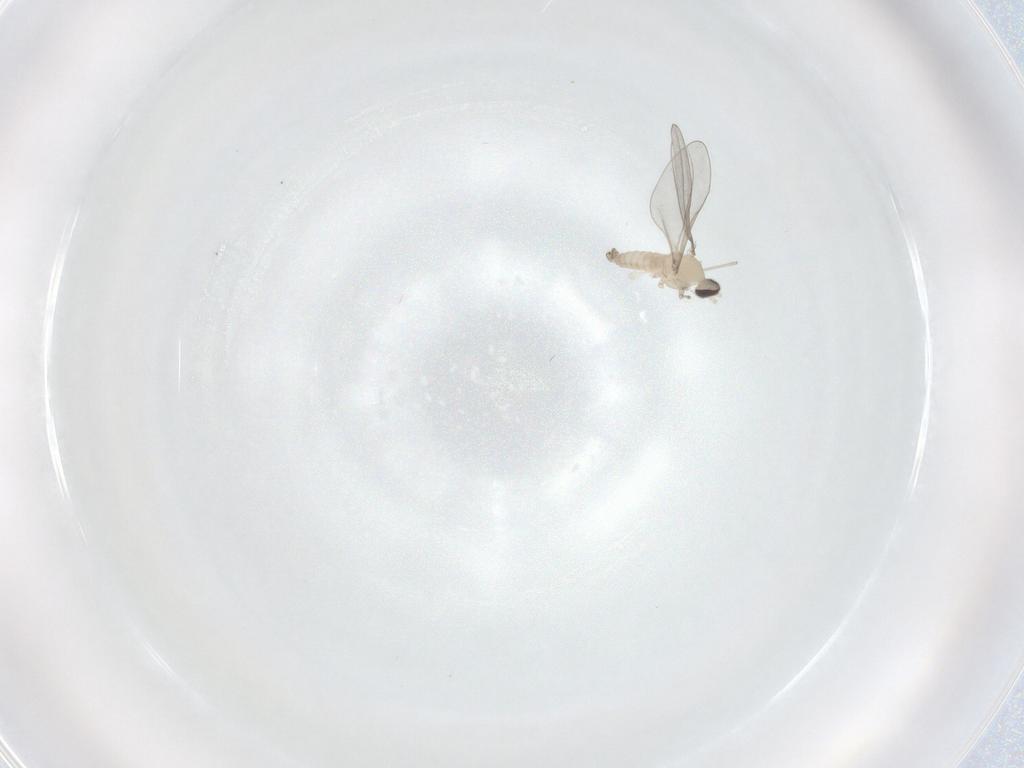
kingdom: Animalia
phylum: Arthropoda
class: Insecta
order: Diptera
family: Cecidomyiidae
